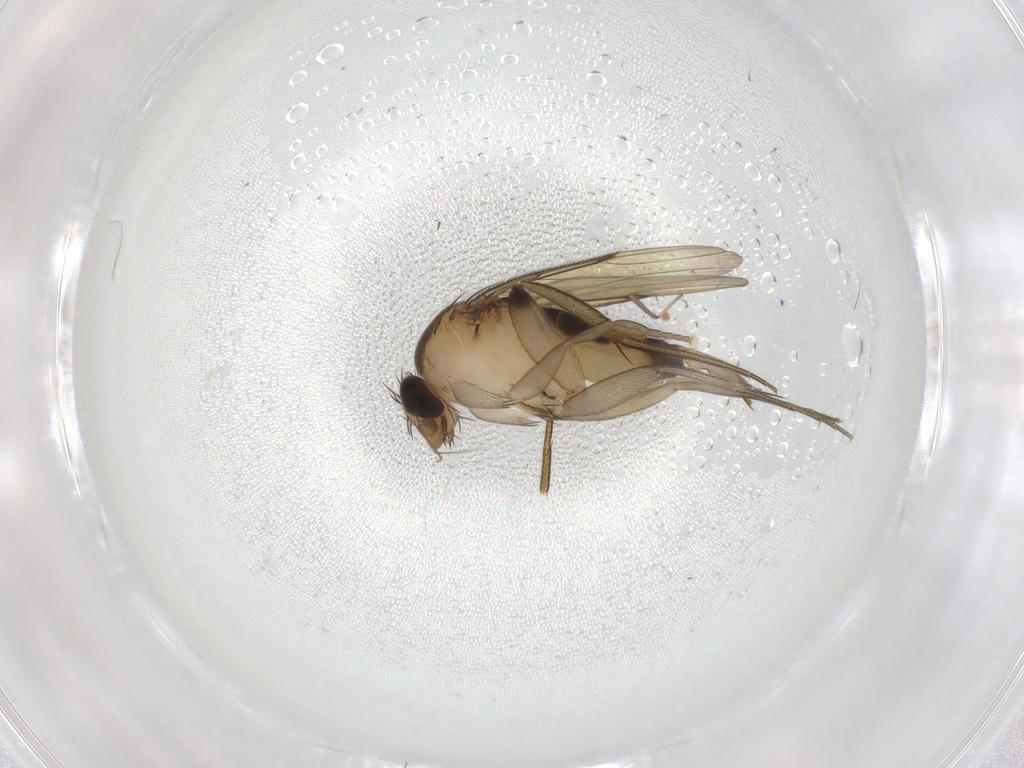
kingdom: Animalia
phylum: Arthropoda
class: Insecta
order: Diptera
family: Phoridae
